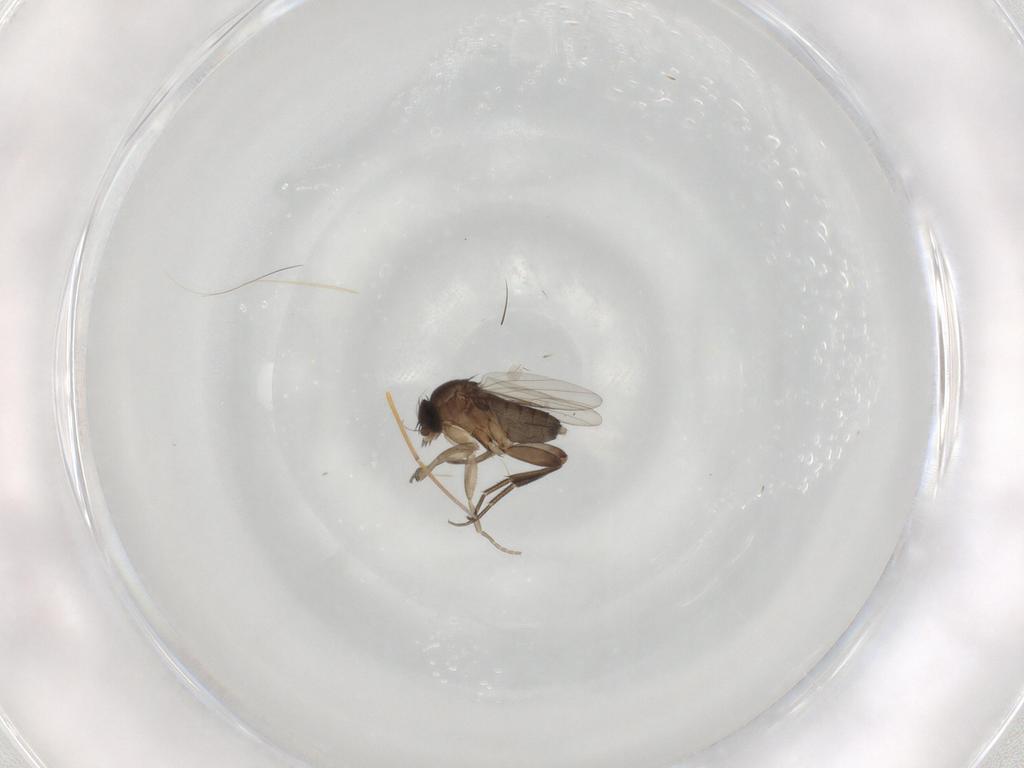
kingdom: Animalia
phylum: Arthropoda
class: Insecta
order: Diptera
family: Phoridae
